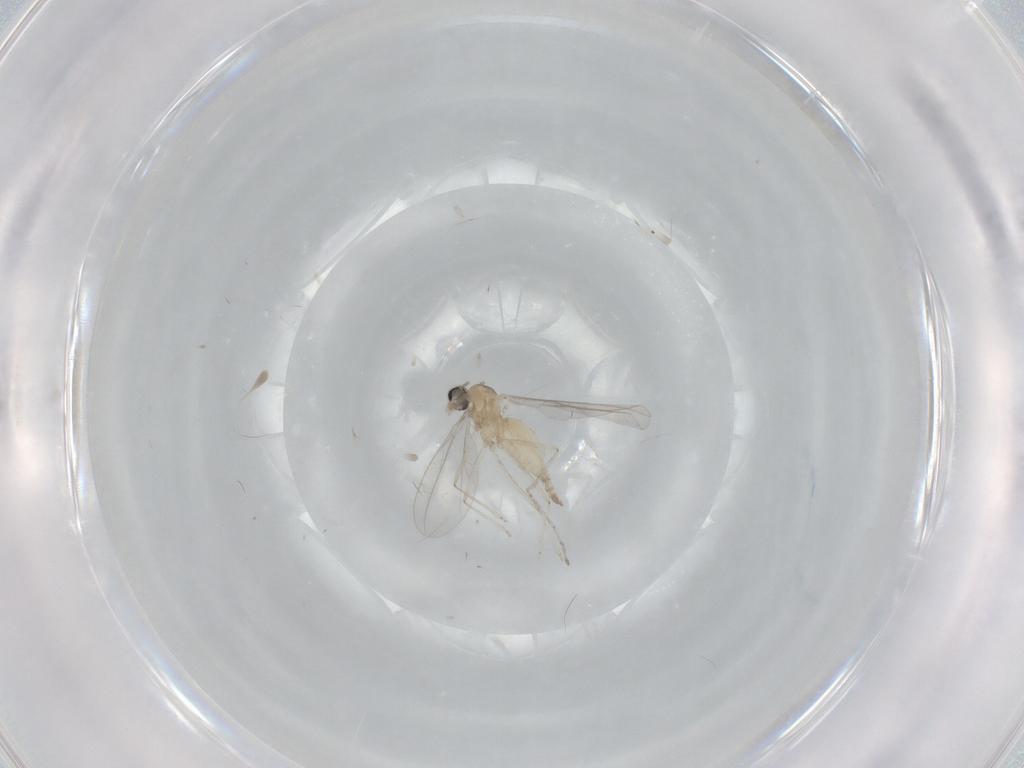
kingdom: Animalia
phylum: Arthropoda
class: Insecta
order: Diptera
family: Cecidomyiidae
